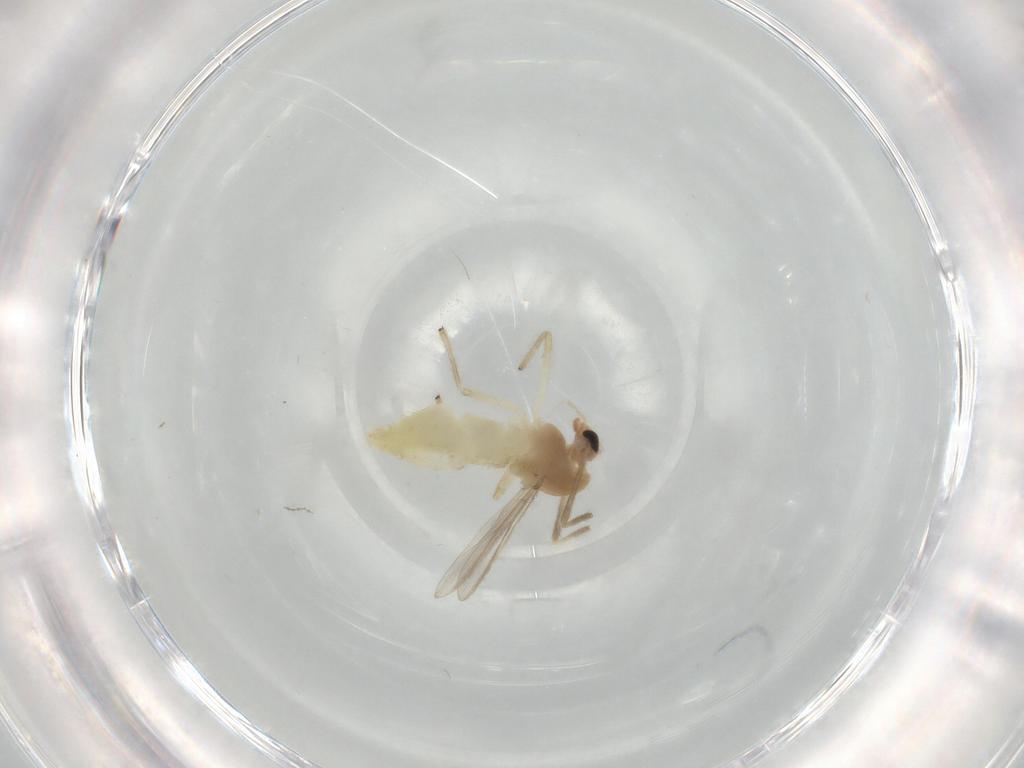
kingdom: Animalia
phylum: Arthropoda
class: Insecta
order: Diptera
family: Chironomidae
